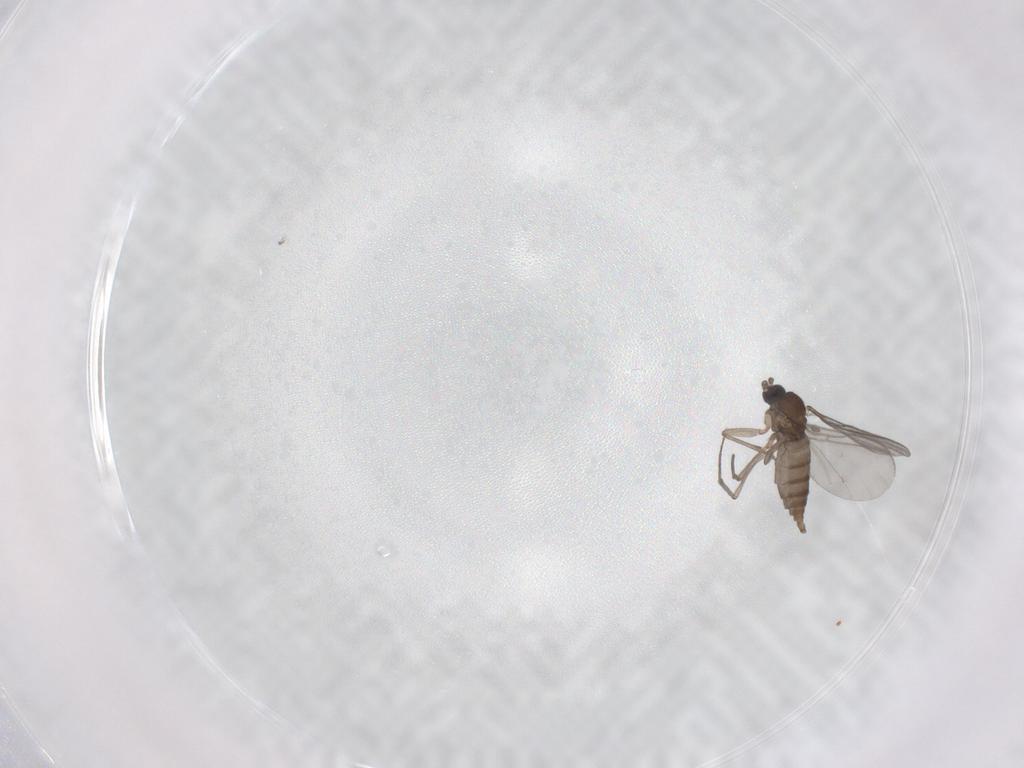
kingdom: Animalia
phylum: Arthropoda
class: Insecta
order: Diptera
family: Sciaridae
